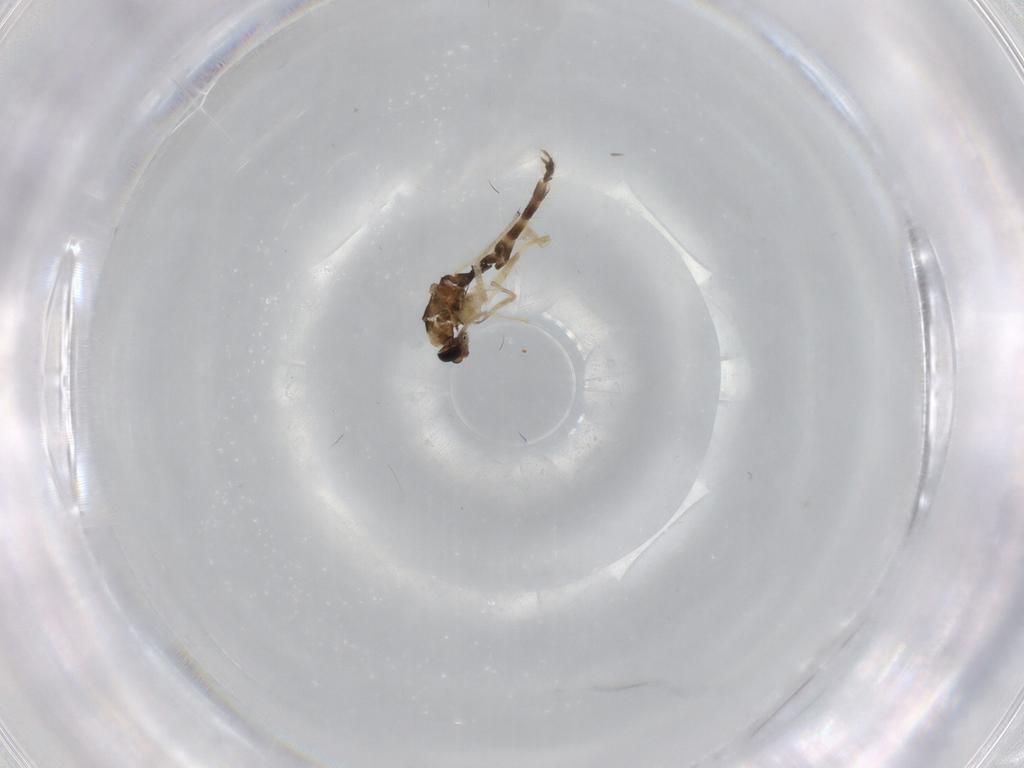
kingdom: Animalia
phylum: Arthropoda
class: Insecta
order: Diptera
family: Chironomidae
